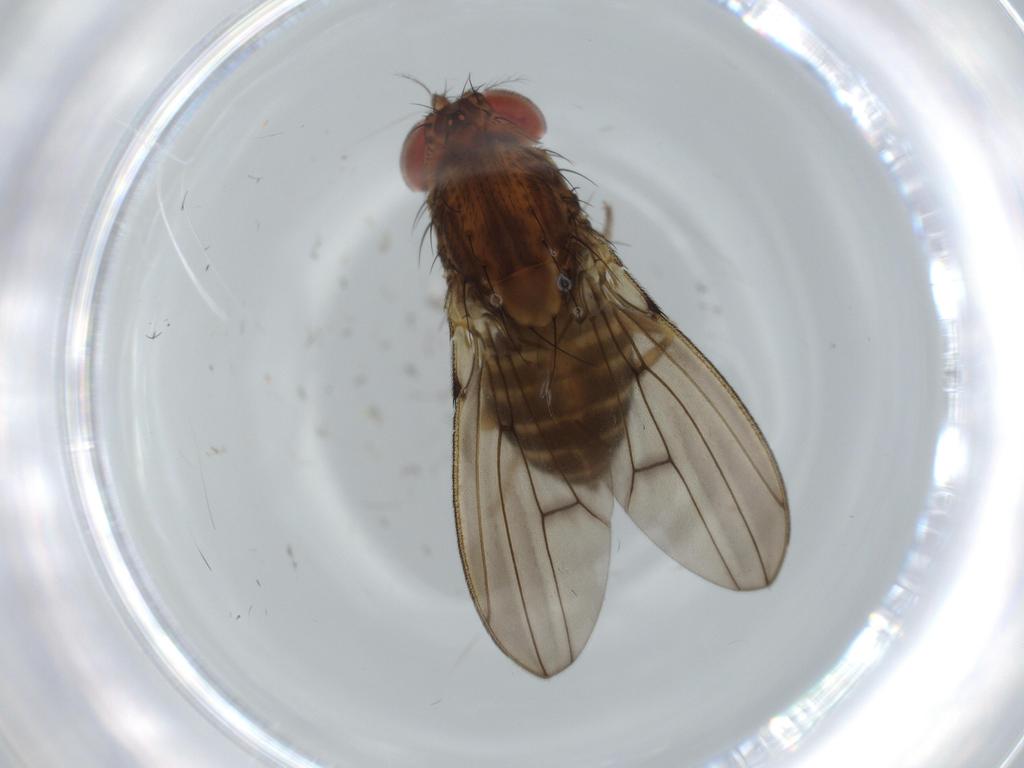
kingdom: Animalia
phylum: Arthropoda
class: Insecta
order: Diptera
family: Drosophilidae
